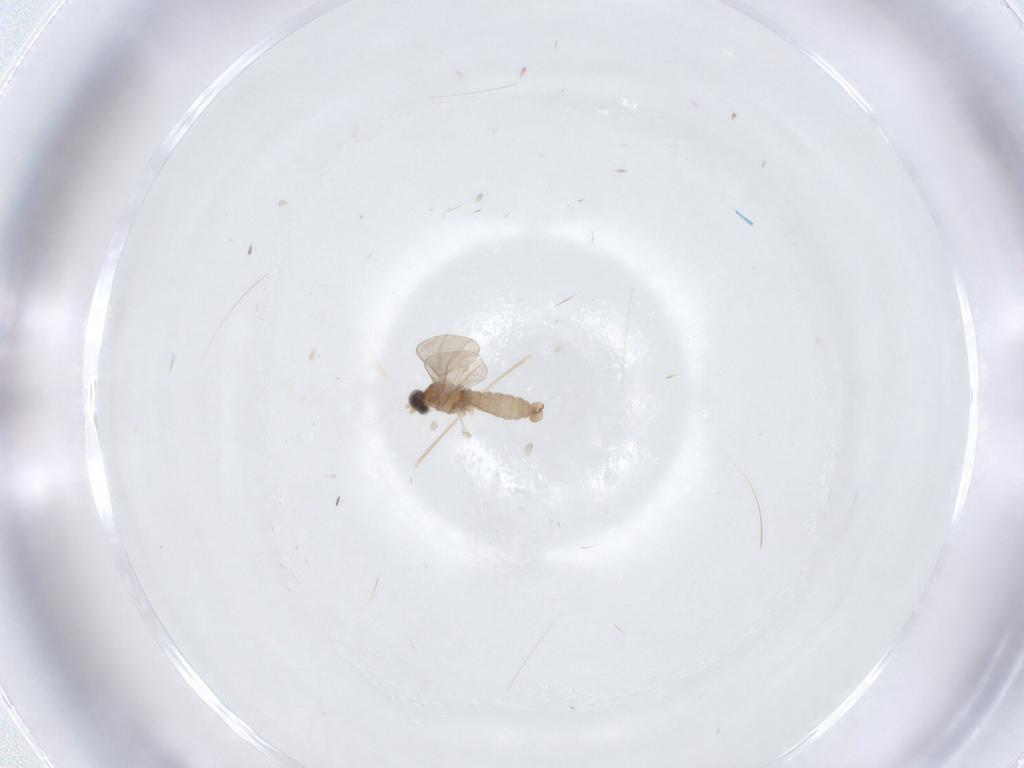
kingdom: Animalia
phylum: Arthropoda
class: Insecta
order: Diptera
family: Cecidomyiidae
